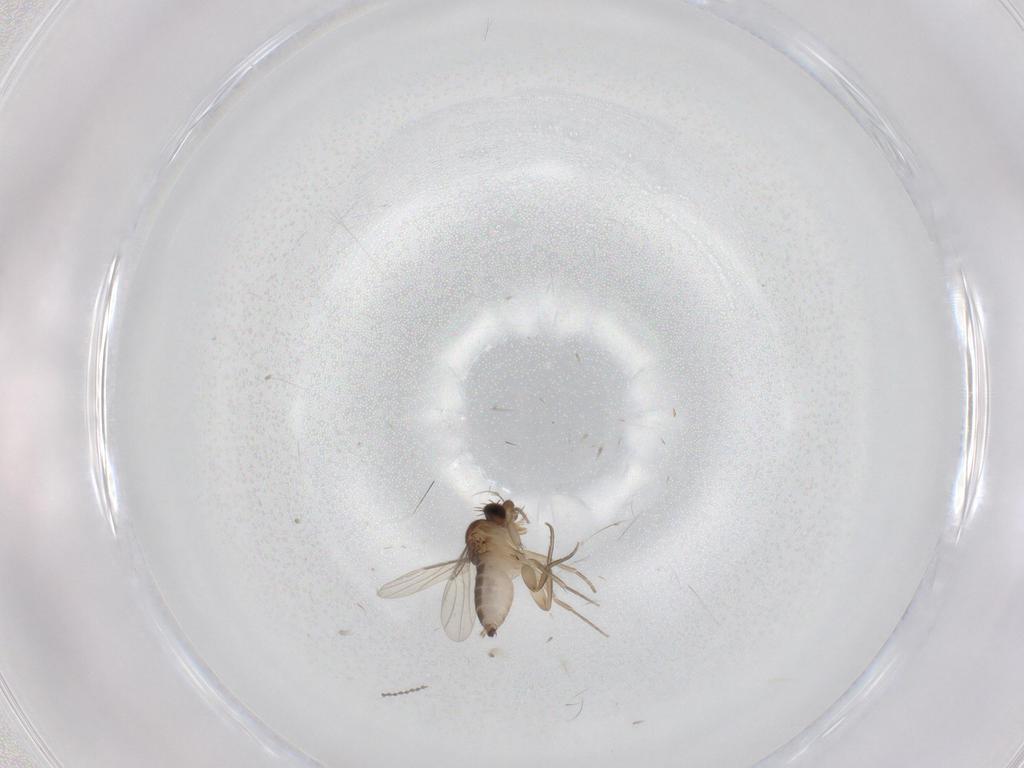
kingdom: Animalia
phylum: Arthropoda
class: Insecta
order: Diptera
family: Phoridae
